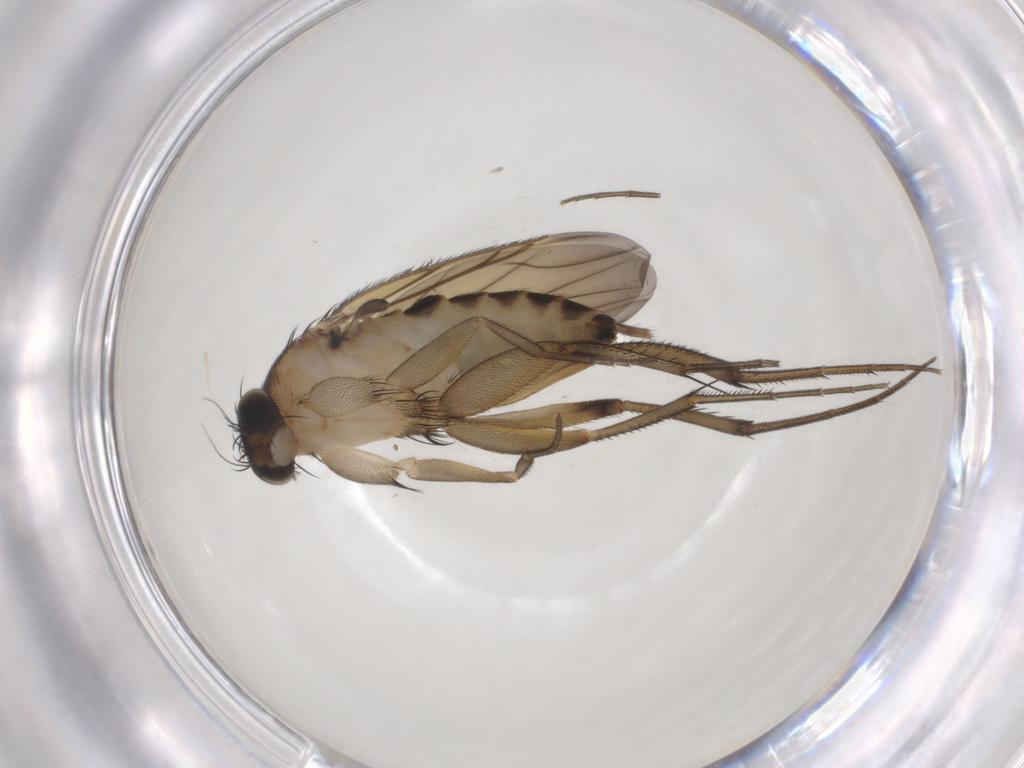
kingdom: Animalia
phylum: Arthropoda
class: Insecta
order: Diptera
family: Phoridae
